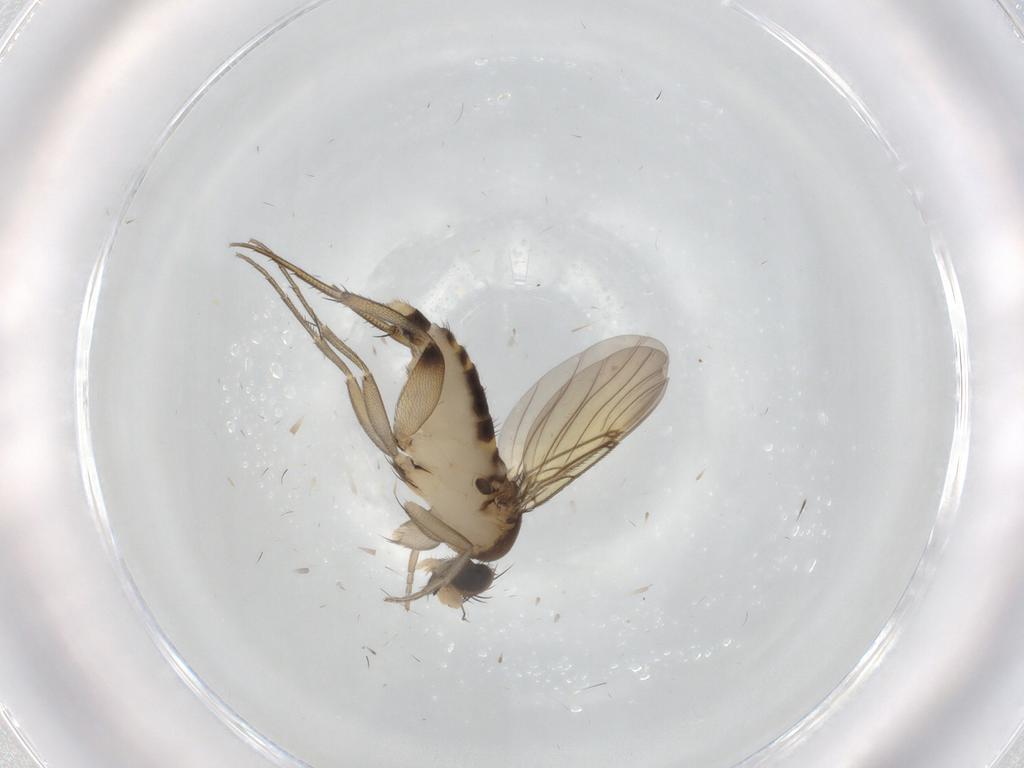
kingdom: Animalia
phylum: Arthropoda
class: Insecta
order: Diptera
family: Phoridae
